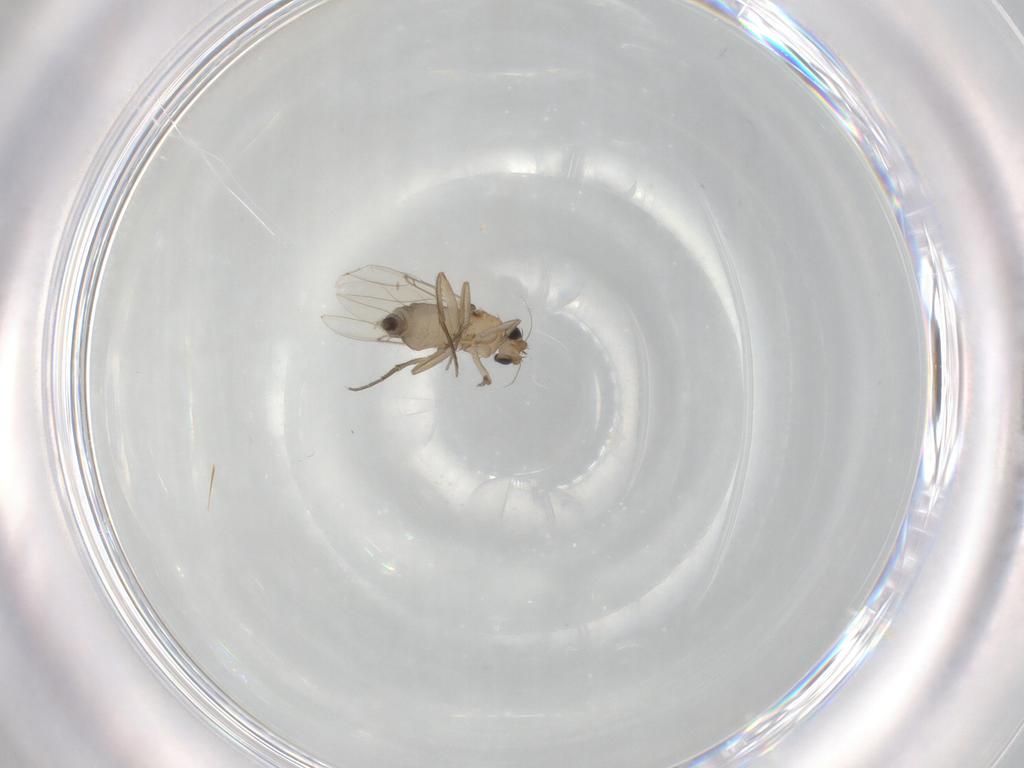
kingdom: Animalia
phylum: Arthropoda
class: Insecta
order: Diptera
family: Phoridae
